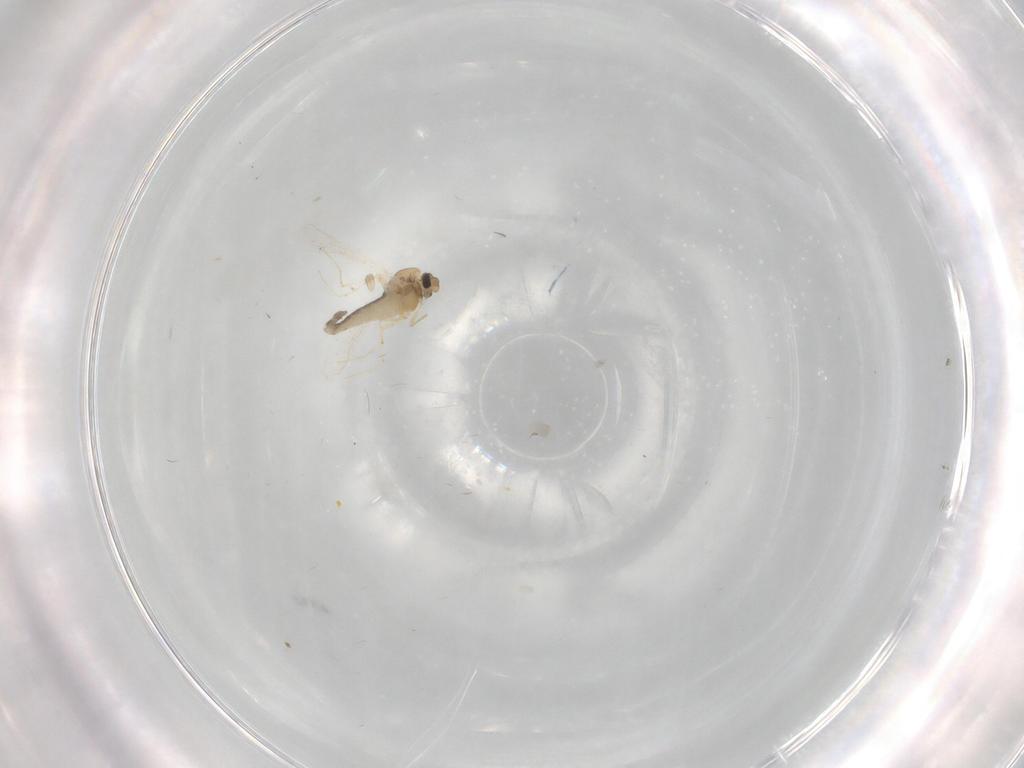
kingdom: Animalia
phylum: Arthropoda
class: Insecta
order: Diptera
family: Chironomidae
